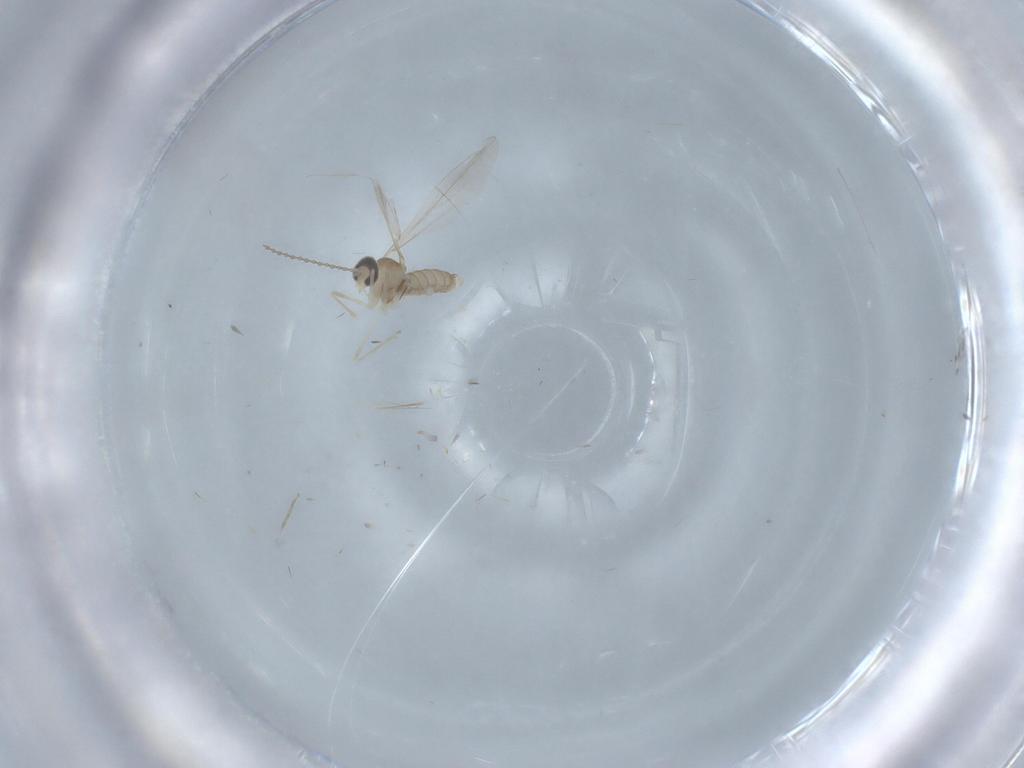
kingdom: Animalia
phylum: Arthropoda
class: Insecta
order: Diptera
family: Cecidomyiidae
